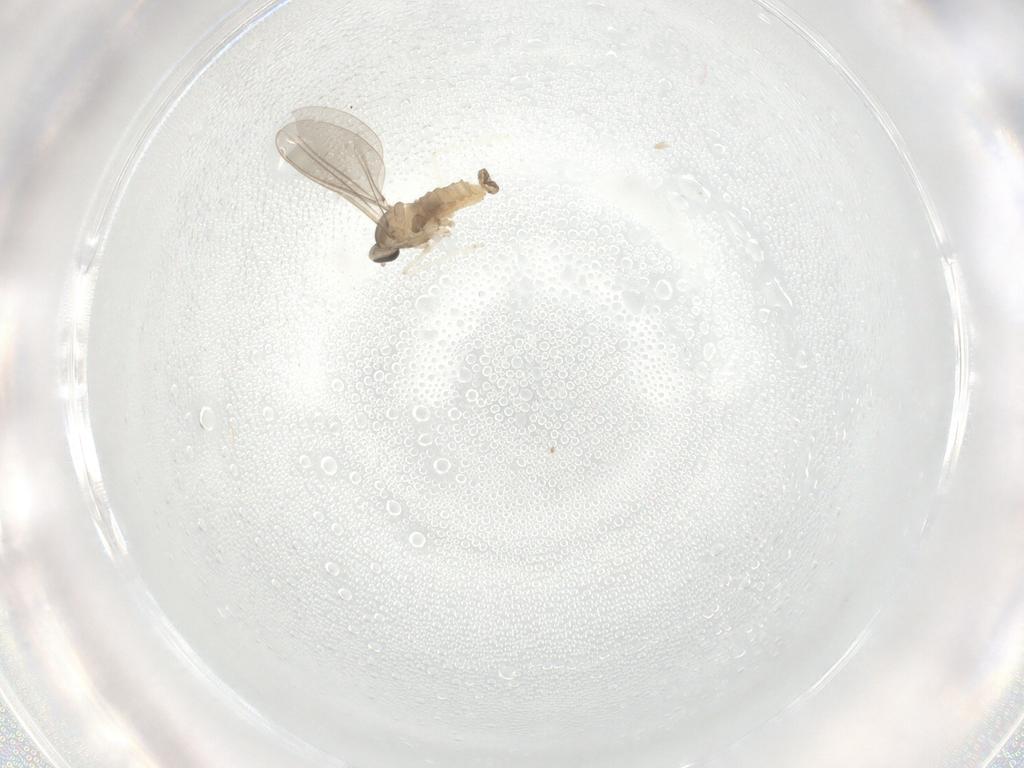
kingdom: Animalia
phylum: Arthropoda
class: Insecta
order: Diptera
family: Cecidomyiidae
